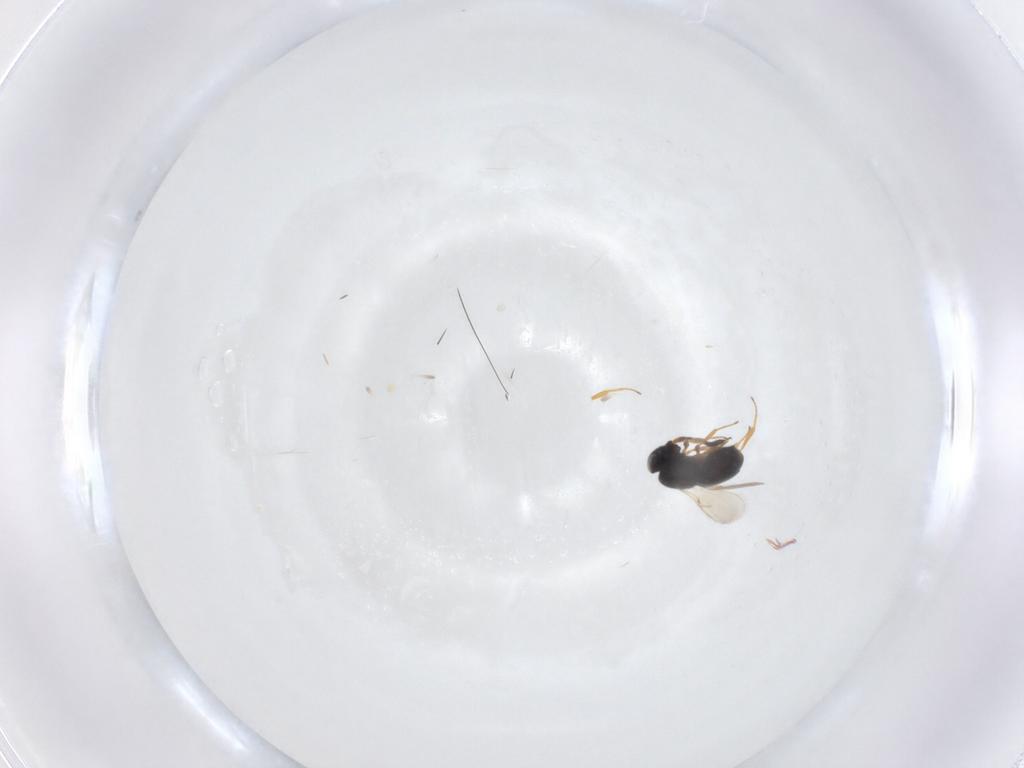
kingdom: Animalia
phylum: Arthropoda
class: Insecta
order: Hymenoptera
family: Scelionidae
